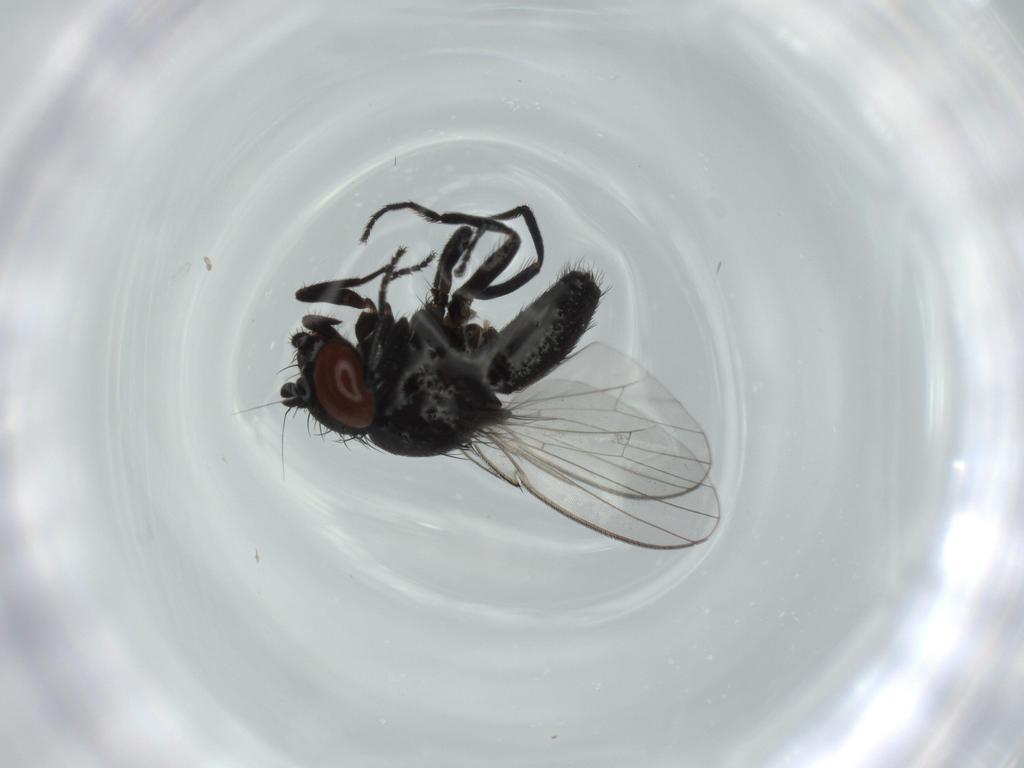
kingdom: Animalia
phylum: Arthropoda
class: Insecta
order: Diptera
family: Milichiidae
